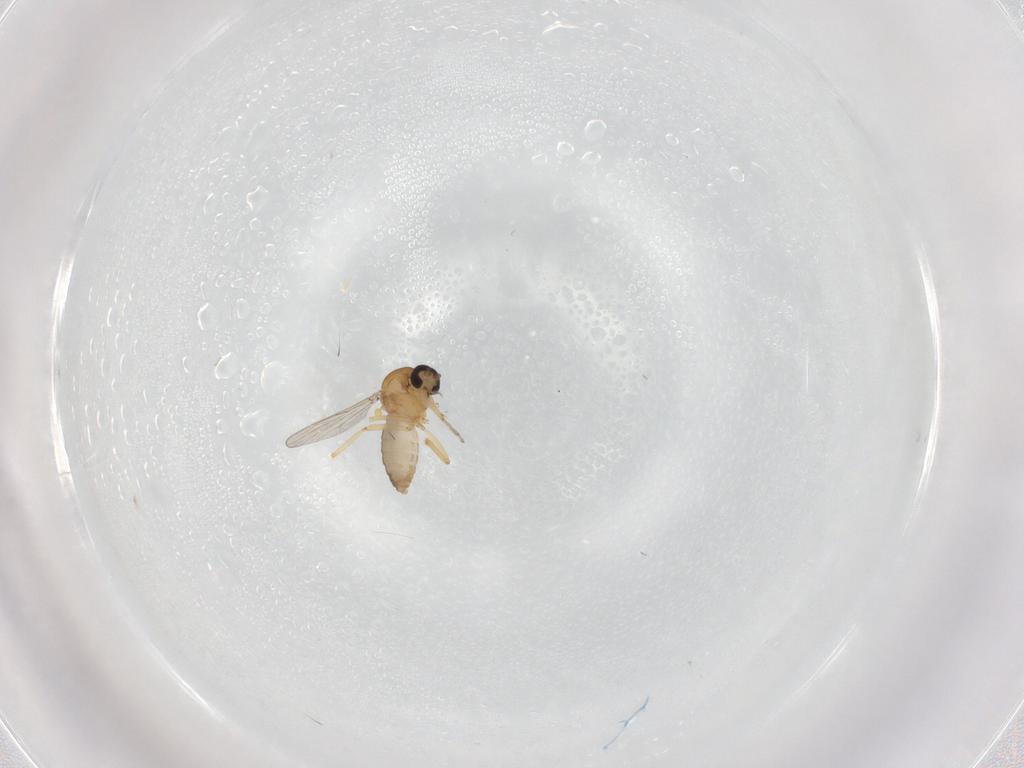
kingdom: Animalia
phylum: Arthropoda
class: Insecta
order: Diptera
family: Ceratopogonidae
